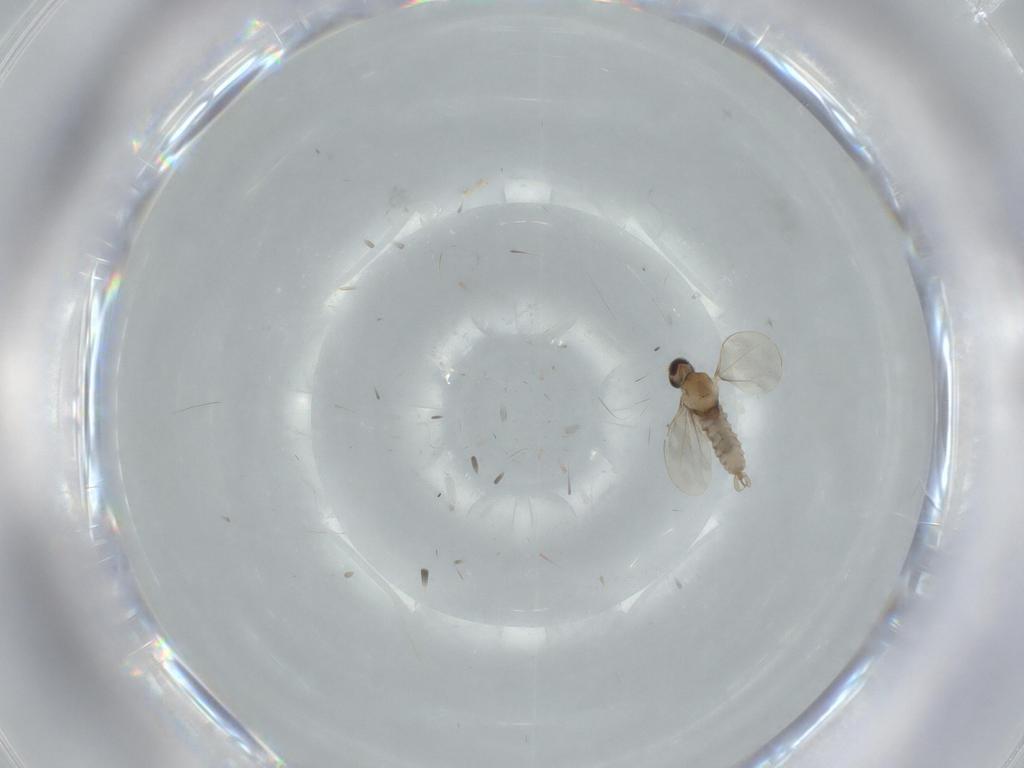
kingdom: Animalia
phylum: Arthropoda
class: Insecta
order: Diptera
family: Cecidomyiidae
